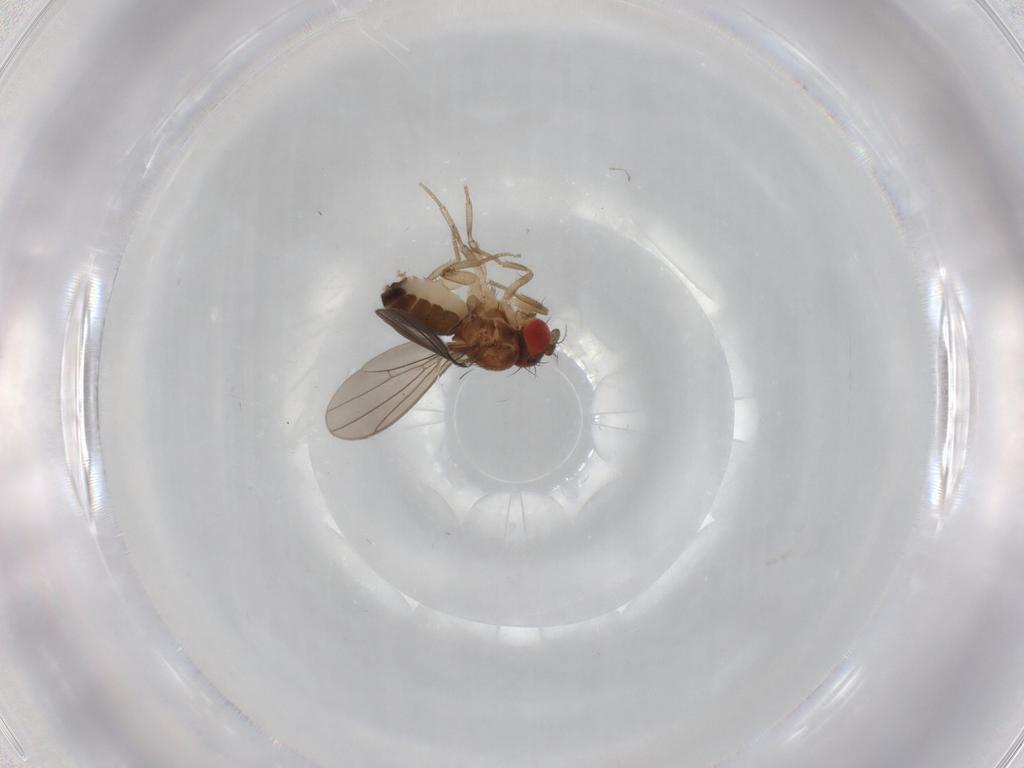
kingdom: Animalia
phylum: Arthropoda
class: Insecta
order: Diptera
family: Drosophilidae
